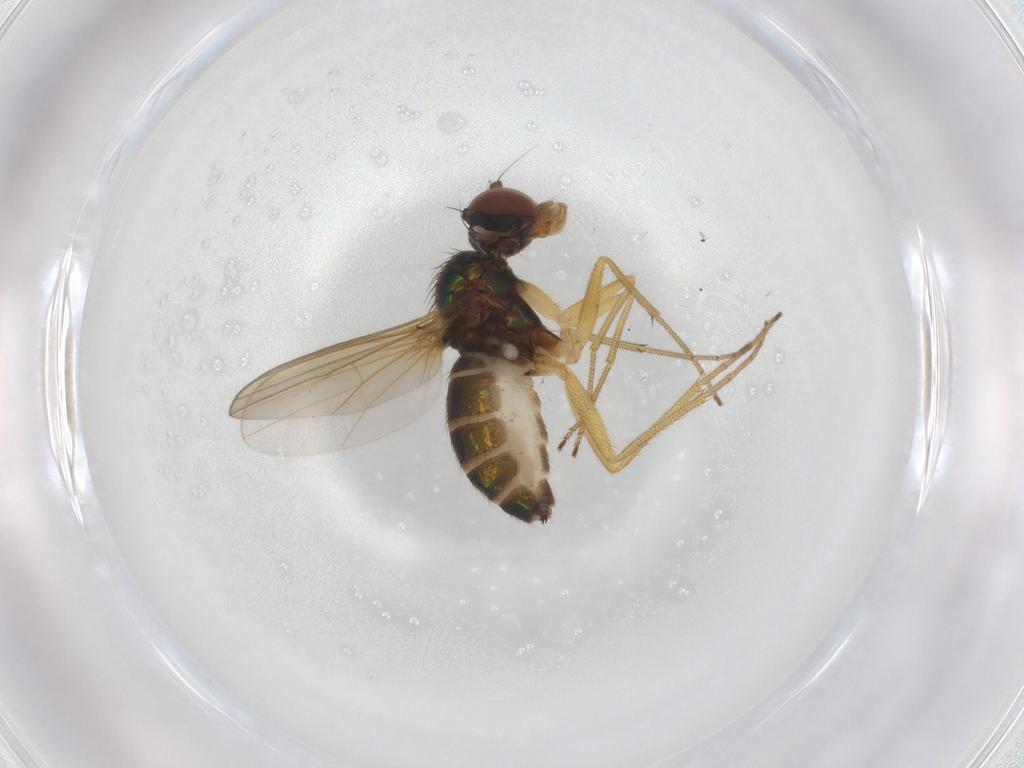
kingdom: Animalia
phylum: Arthropoda
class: Insecta
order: Diptera
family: Dolichopodidae
